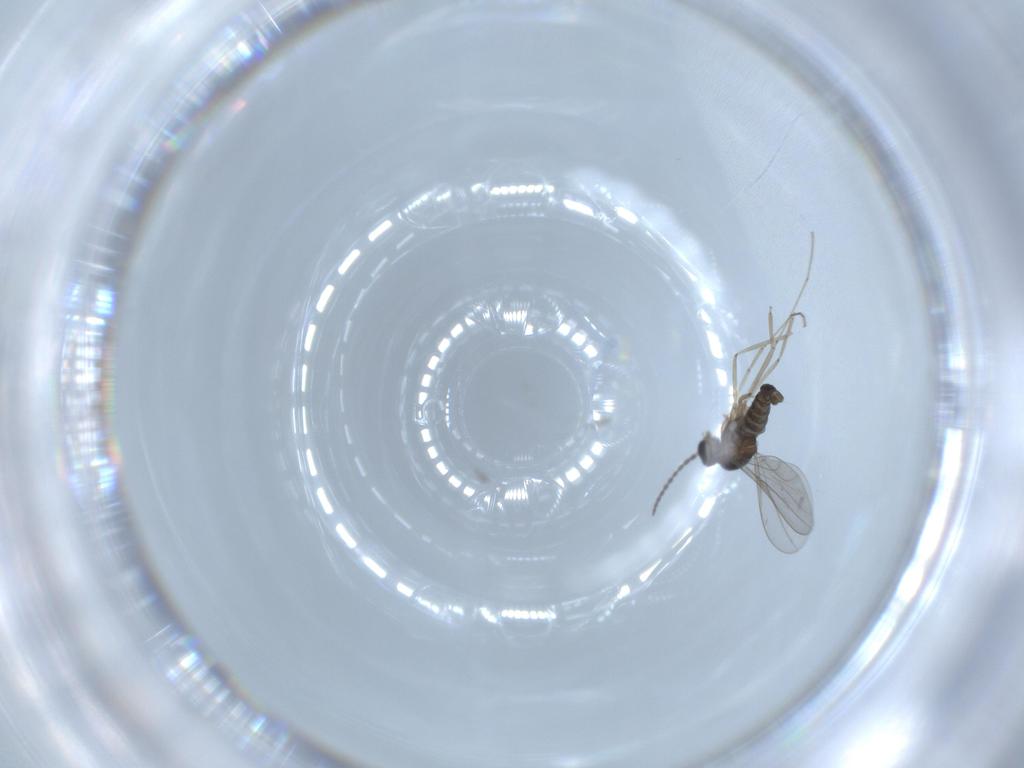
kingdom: Animalia
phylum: Arthropoda
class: Insecta
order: Diptera
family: Cecidomyiidae
